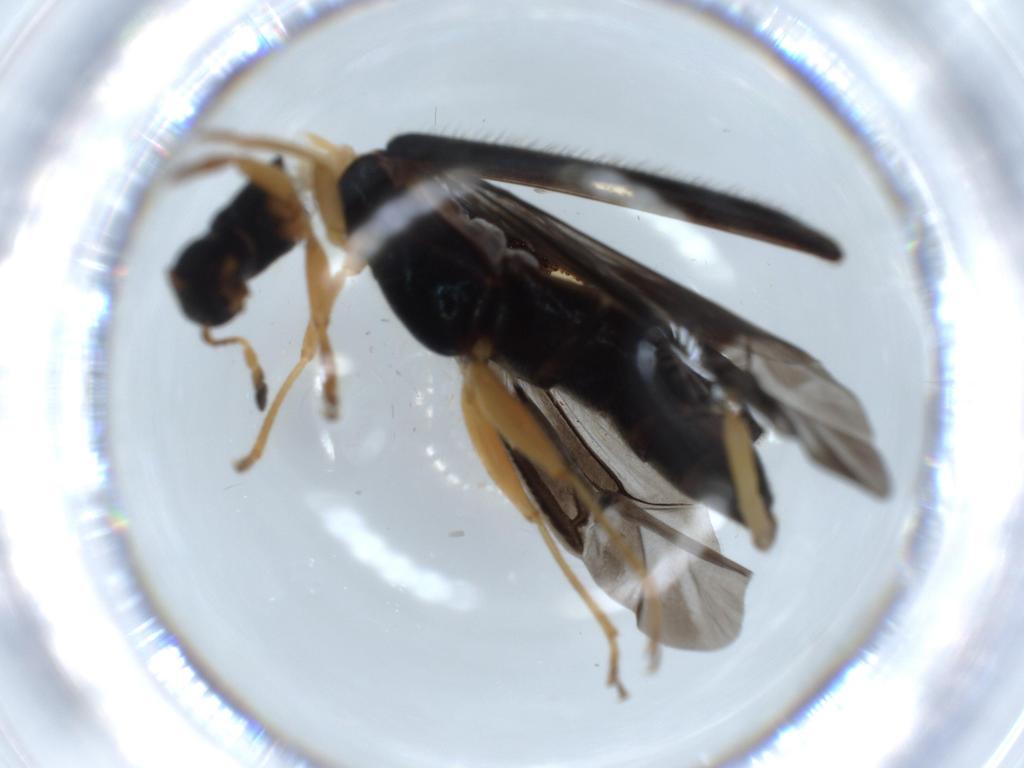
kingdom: Animalia
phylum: Arthropoda
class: Insecta
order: Coleoptera
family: Cleridae
